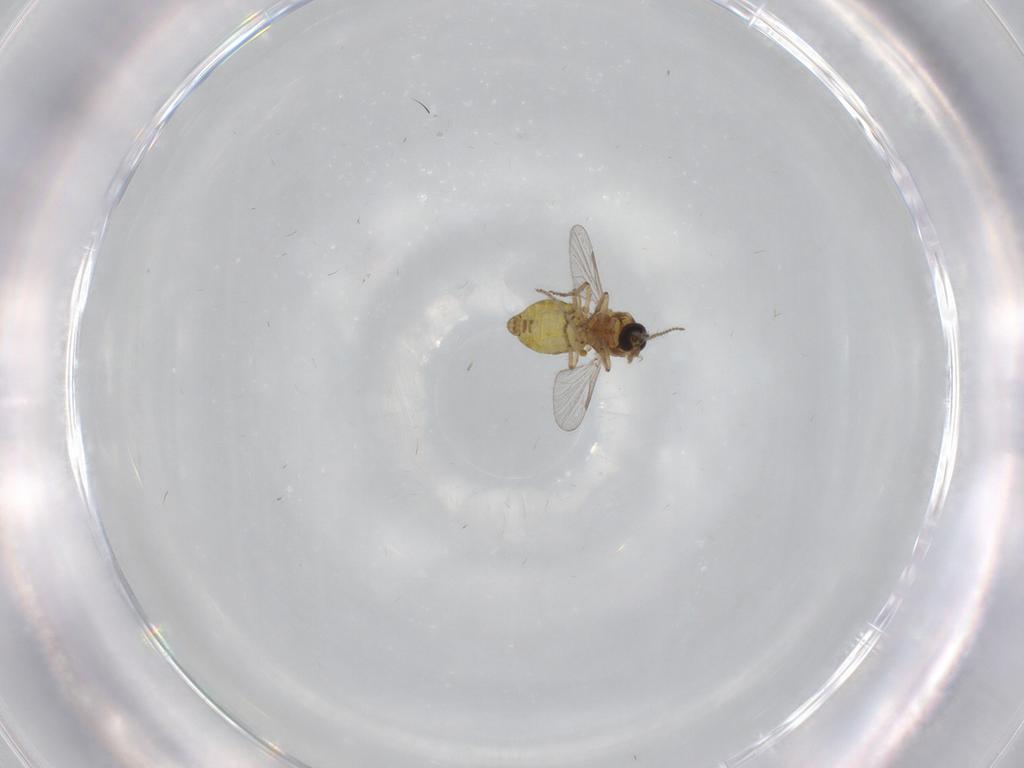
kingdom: Animalia
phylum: Arthropoda
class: Insecta
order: Diptera
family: Ceratopogonidae
